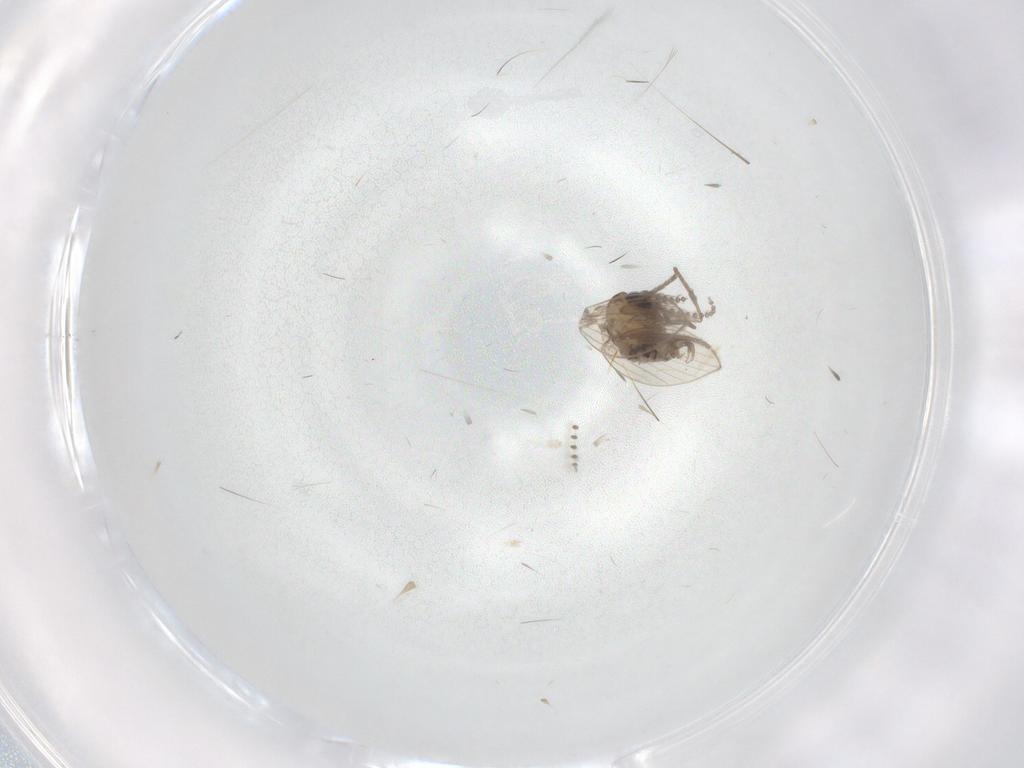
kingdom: Animalia
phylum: Arthropoda
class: Insecta
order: Diptera
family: Psychodidae
